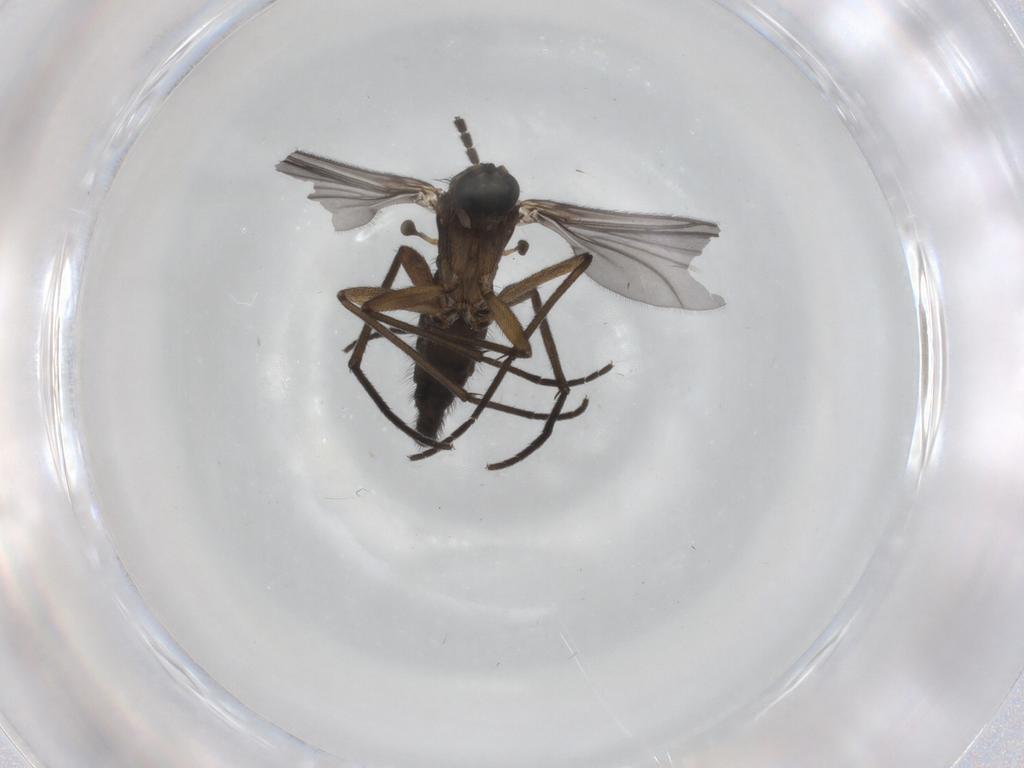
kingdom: Animalia
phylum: Arthropoda
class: Insecta
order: Diptera
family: Sciaridae
